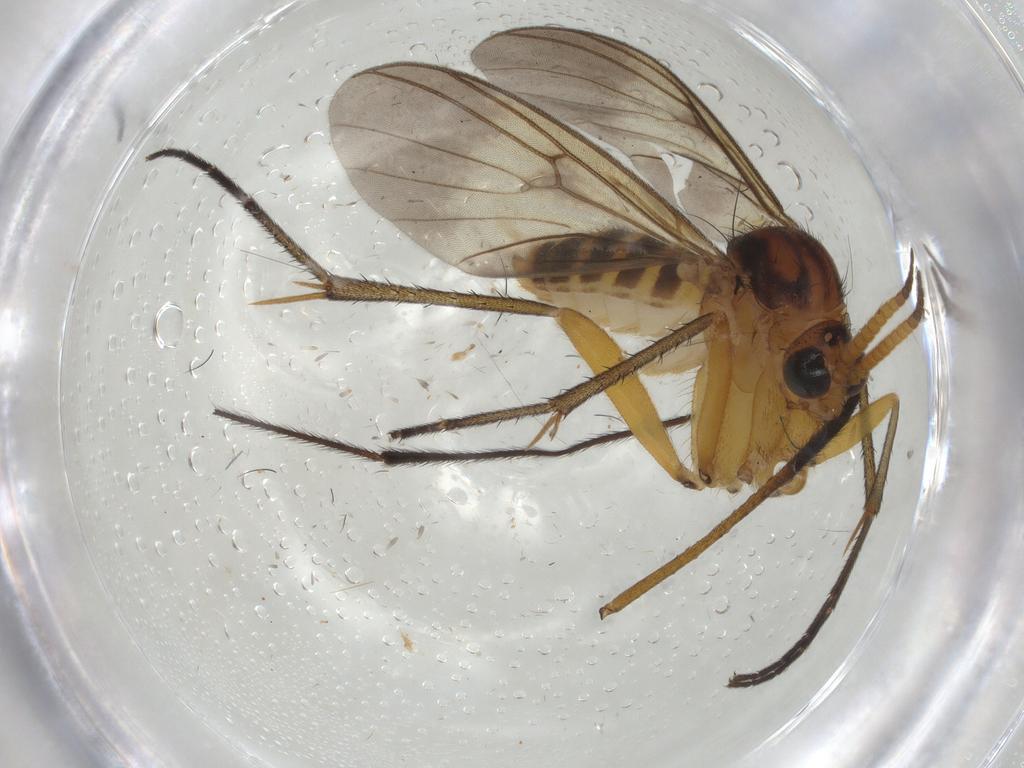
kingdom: Animalia
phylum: Arthropoda
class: Insecta
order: Diptera
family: Limoniidae
